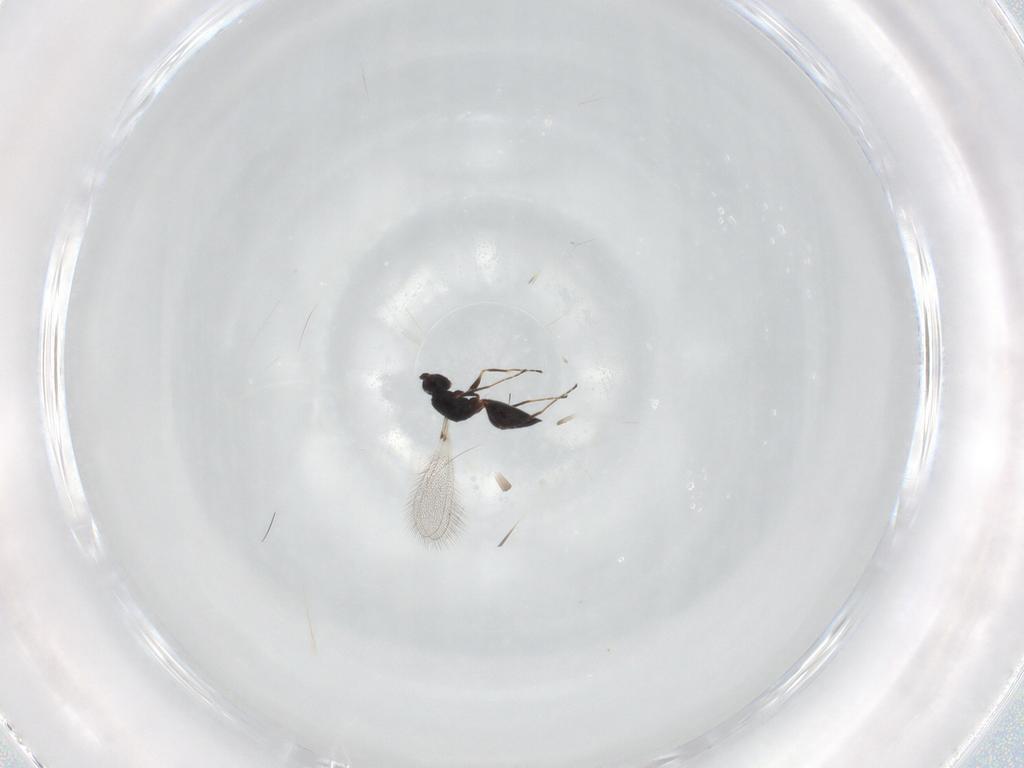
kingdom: Animalia
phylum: Arthropoda
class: Insecta
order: Hymenoptera
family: Mymaridae
